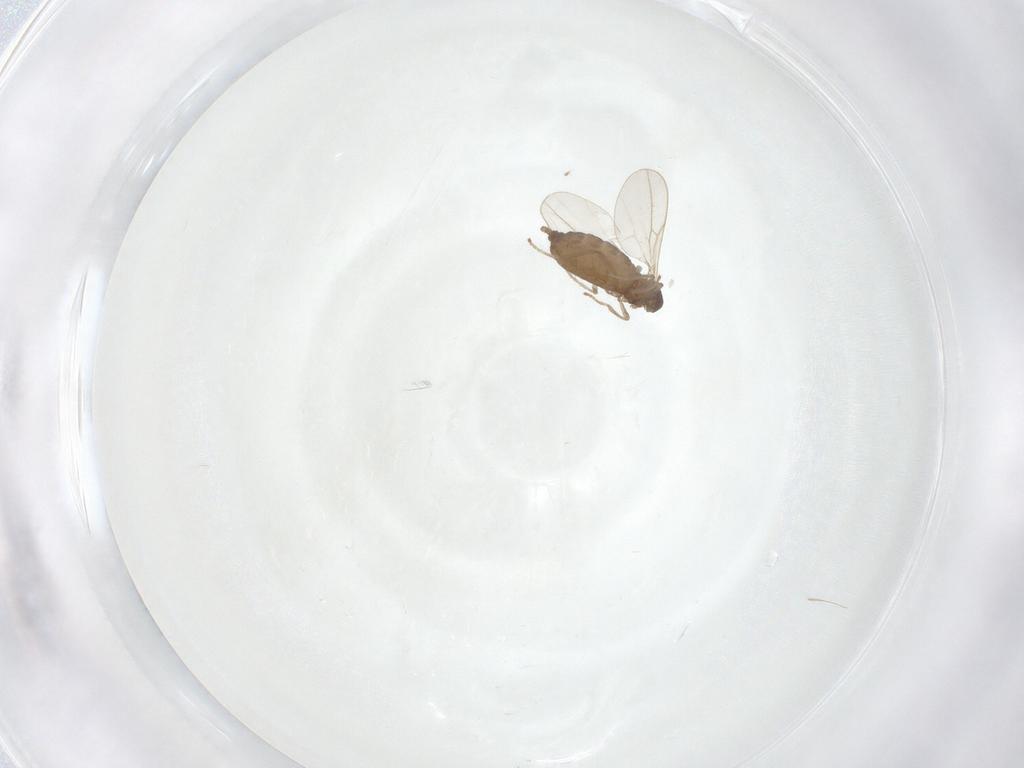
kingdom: Animalia
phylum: Arthropoda
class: Insecta
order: Diptera
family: Cecidomyiidae
